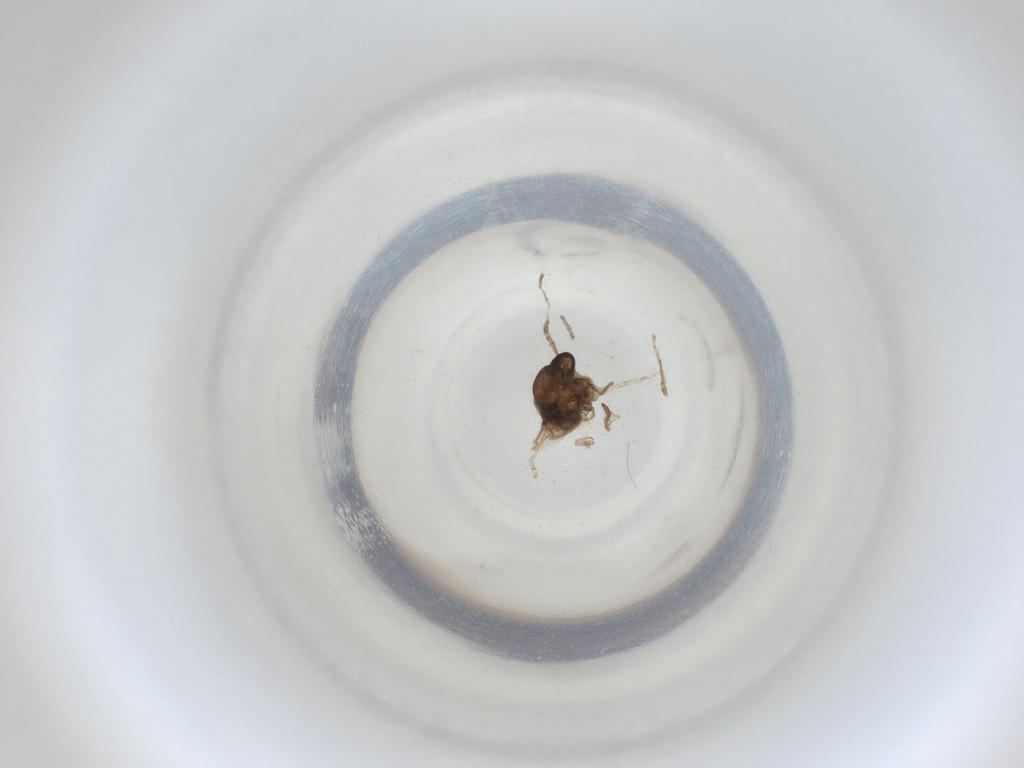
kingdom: Animalia
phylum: Arthropoda
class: Insecta
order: Diptera
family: Cecidomyiidae
